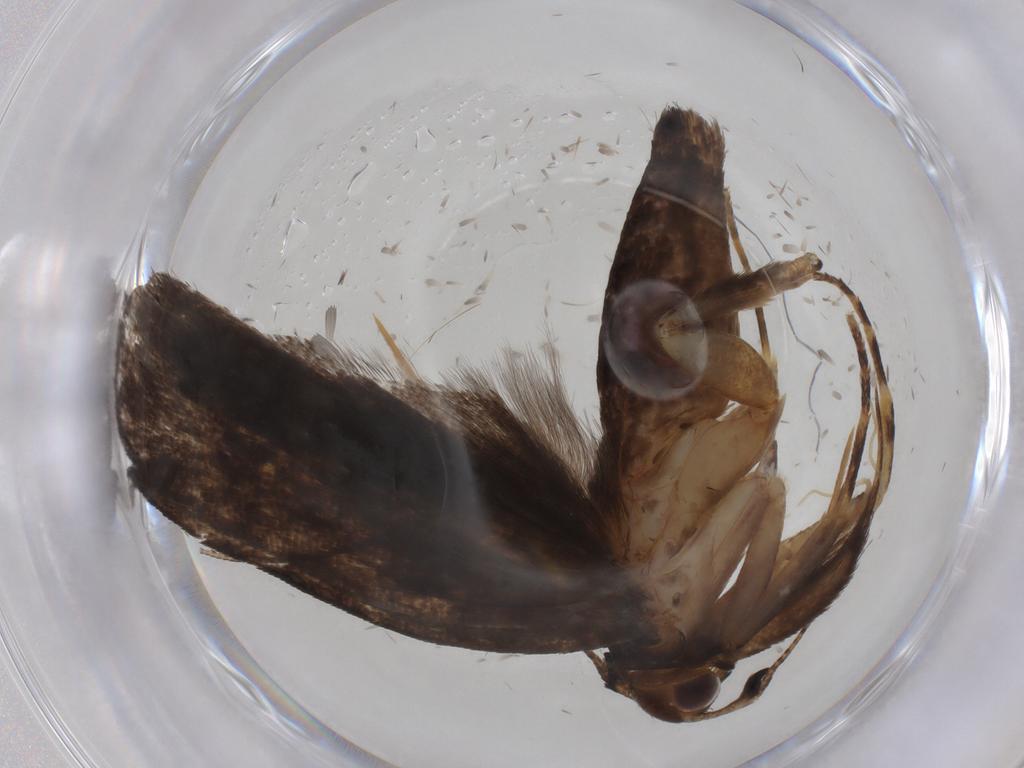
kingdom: Animalia
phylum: Arthropoda
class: Insecta
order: Lepidoptera
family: Gelechiidae
